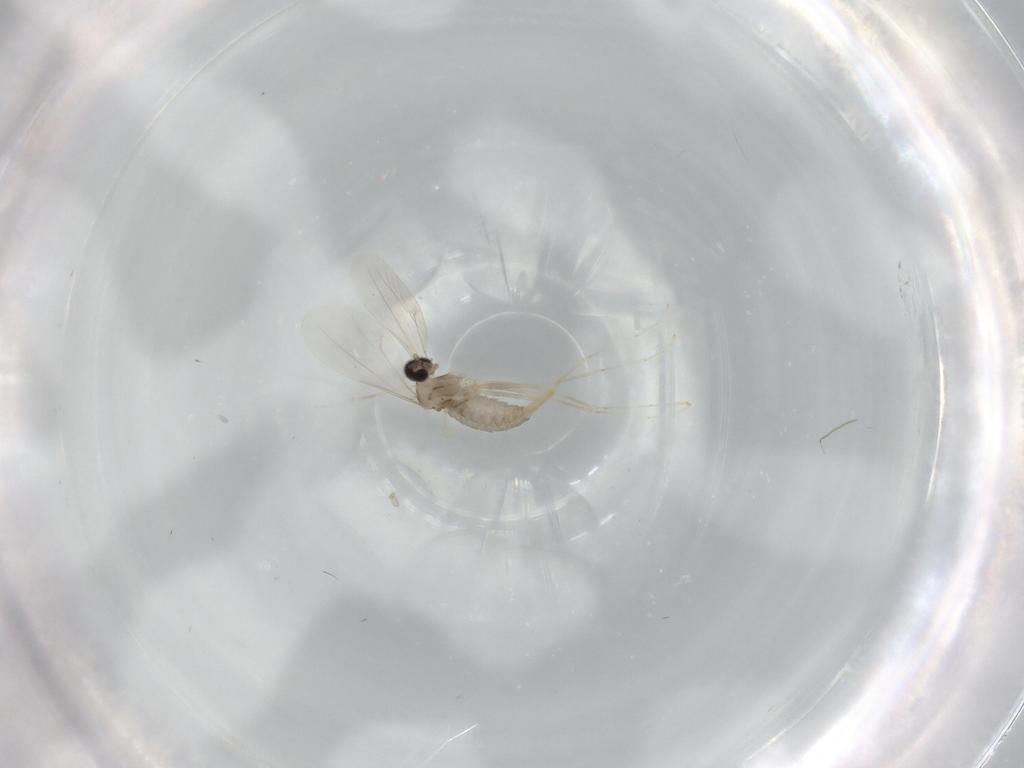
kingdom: Animalia
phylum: Arthropoda
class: Insecta
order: Diptera
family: Cecidomyiidae
